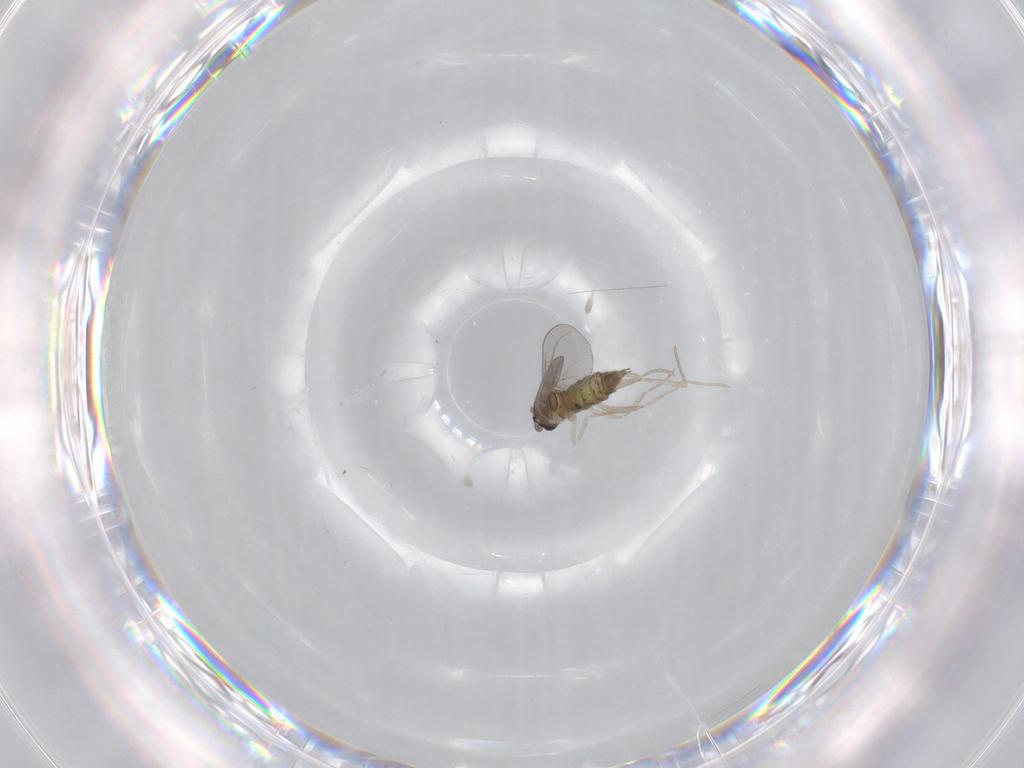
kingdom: Animalia
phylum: Arthropoda
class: Insecta
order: Diptera
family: Cecidomyiidae
